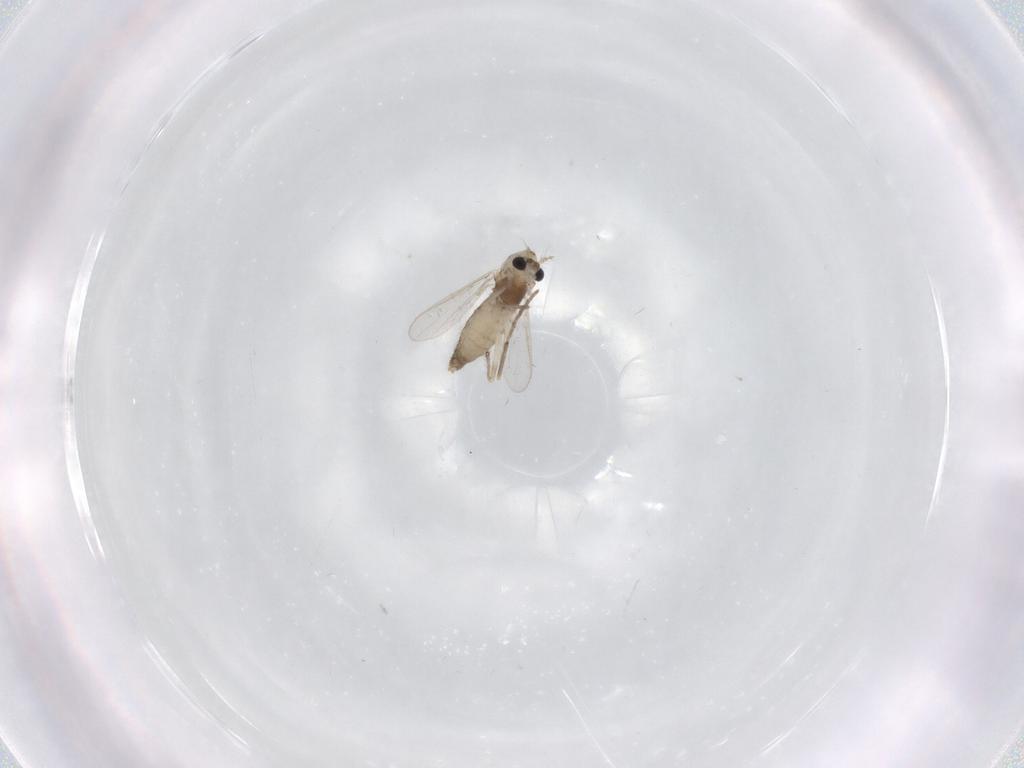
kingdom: Animalia
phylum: Arthropoda
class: Insecta
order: Diptera
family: Chironomidae
